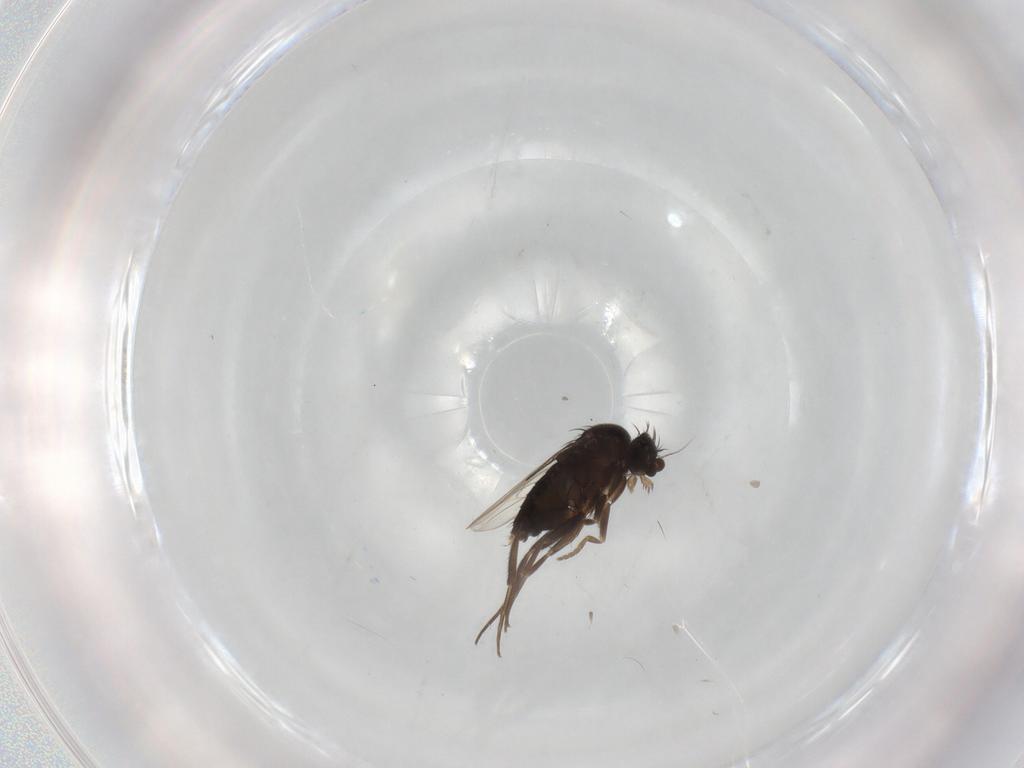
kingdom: Animalia
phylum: Arthropoda
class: Insecta
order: Diptera
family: Phoridae
